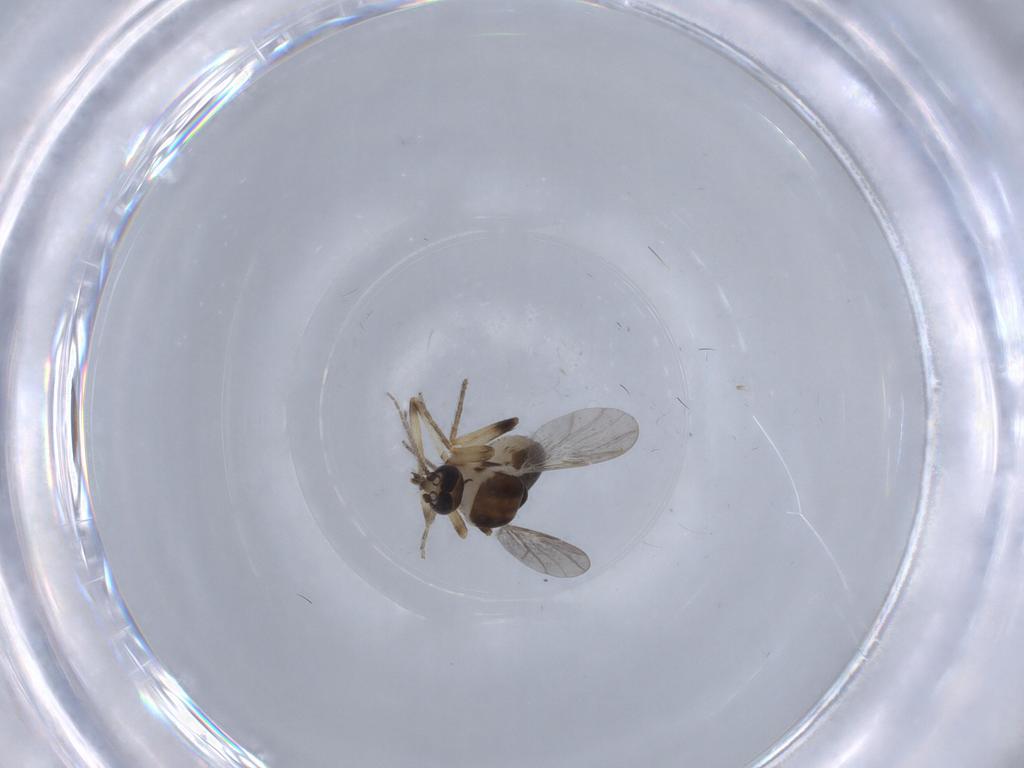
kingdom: Animalia
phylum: Arthropoda
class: Insecta
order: Diptera
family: Ceratopogonidae
